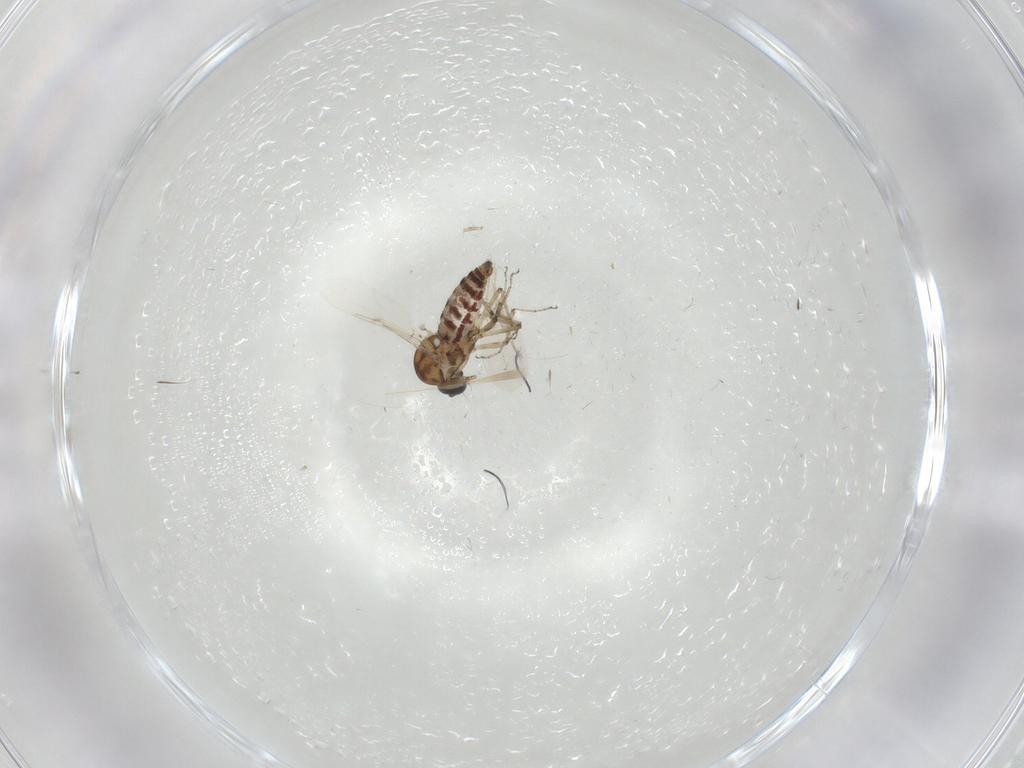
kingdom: Animalia
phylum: Arthropoda
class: Insecta
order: Diptera
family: Ceratopogonidae
